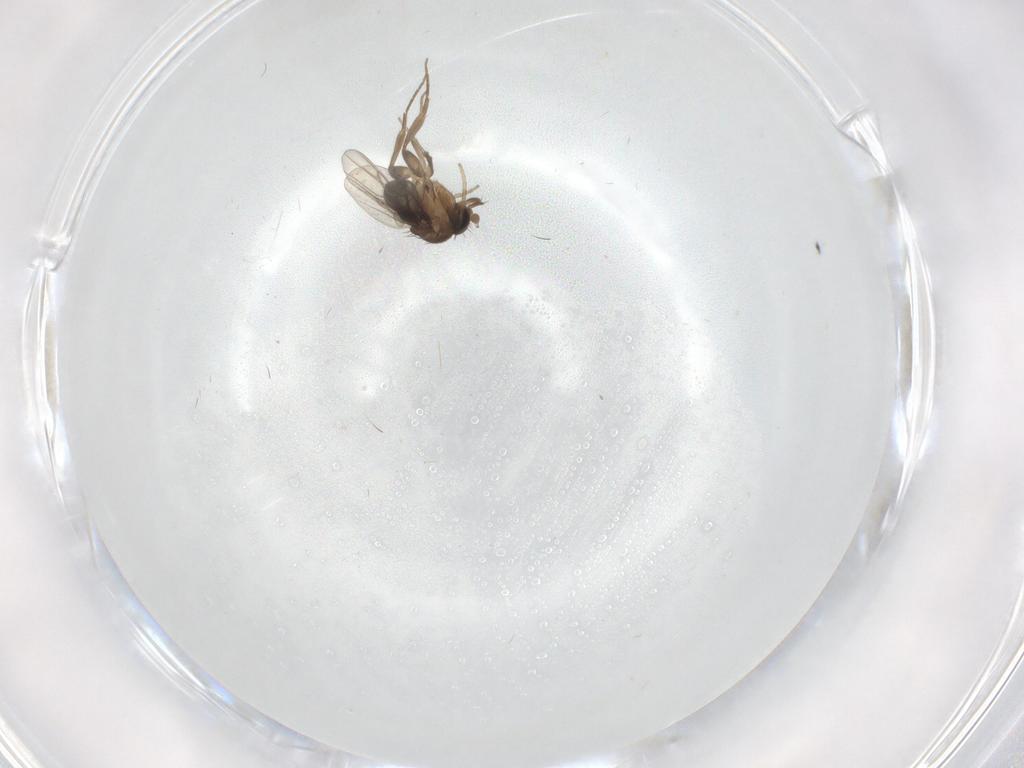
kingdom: Animalia
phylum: Arthropoda
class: Insecta
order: Diptera
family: Phoridae
